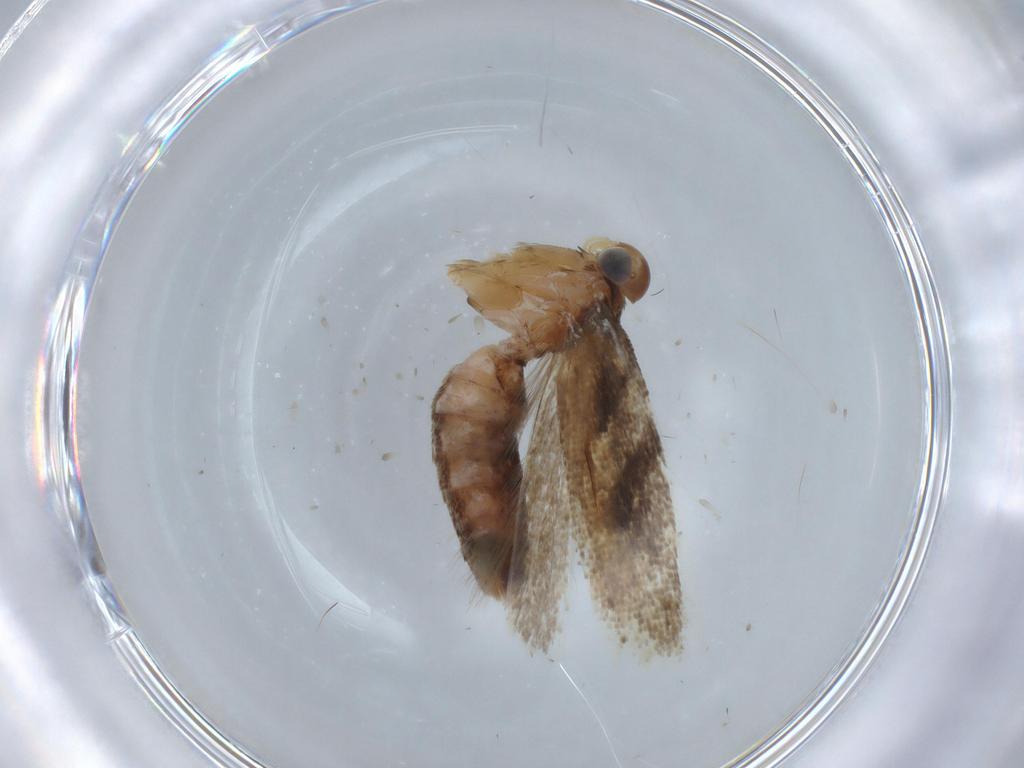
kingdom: Animalia
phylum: Arthropoda
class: Insecta
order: Lepidoptera
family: Gelechiidae
